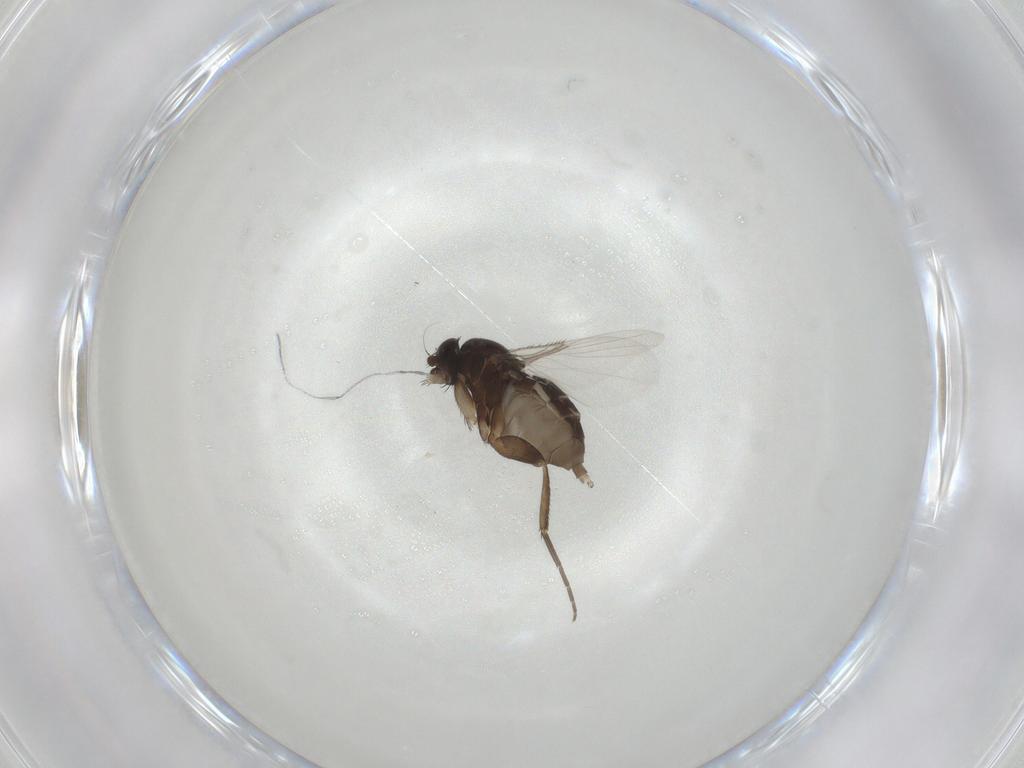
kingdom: Animalia
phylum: Arthropoda
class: Insecta
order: Diptera
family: Phoridae
